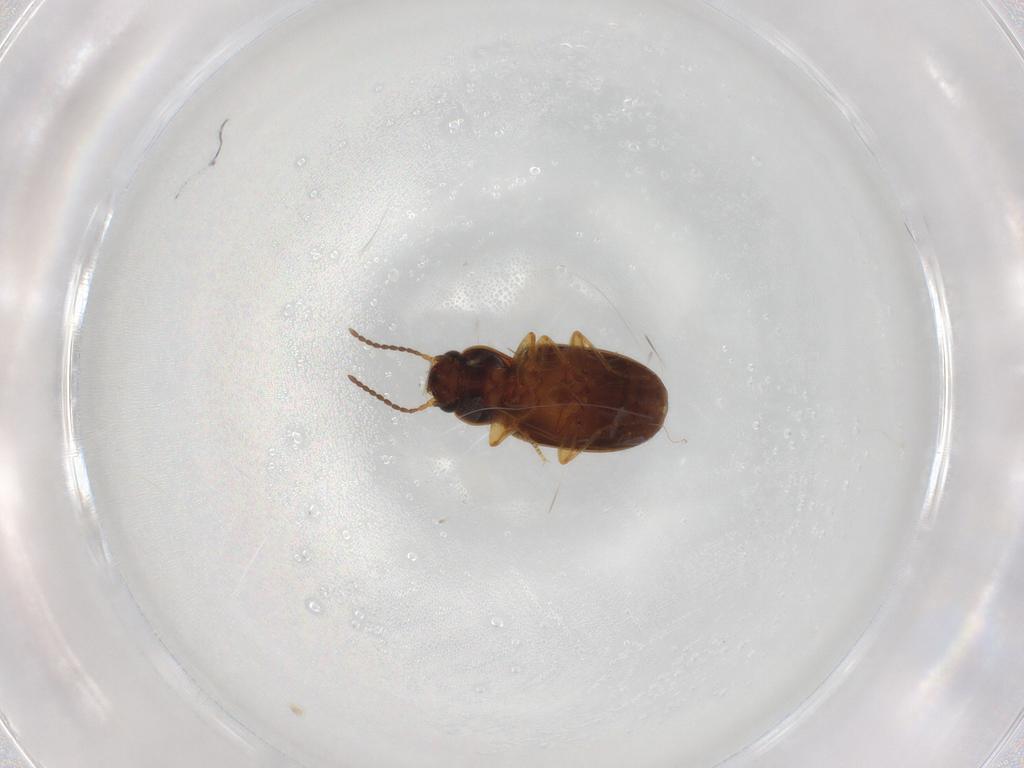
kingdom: Animalia
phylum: Arthropoda
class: Insecta
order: Coleoptera
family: Carabidae
